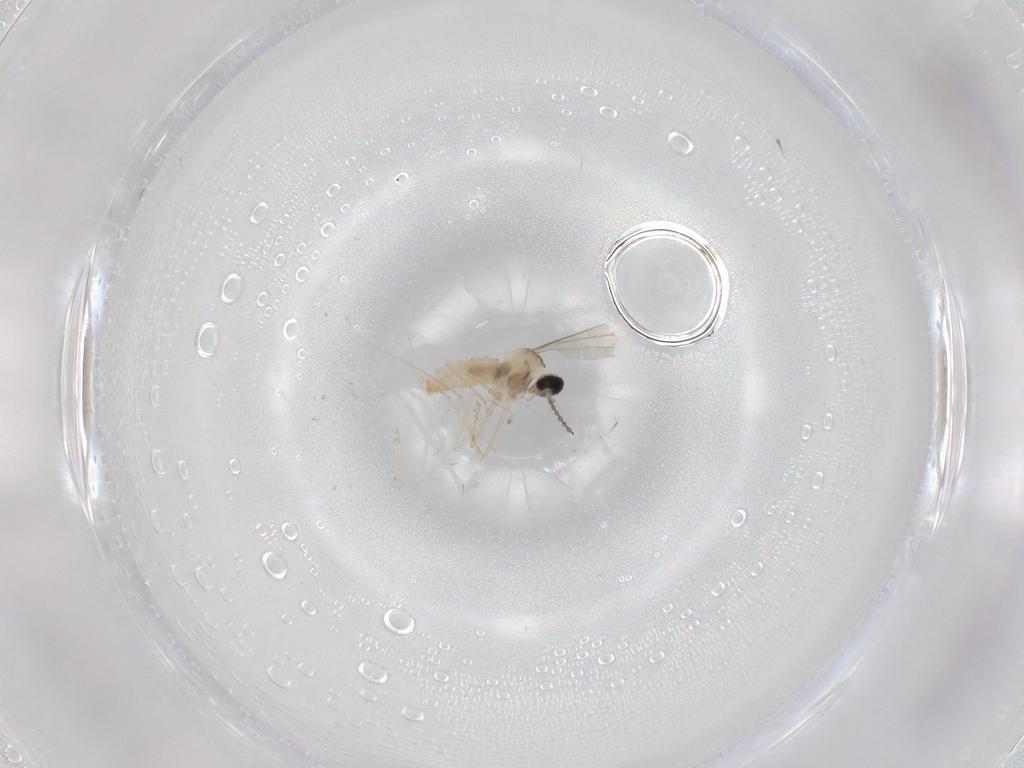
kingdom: Animalia
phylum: Arthropoda
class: Insecta
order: Diptera
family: Cecidomyiidae
